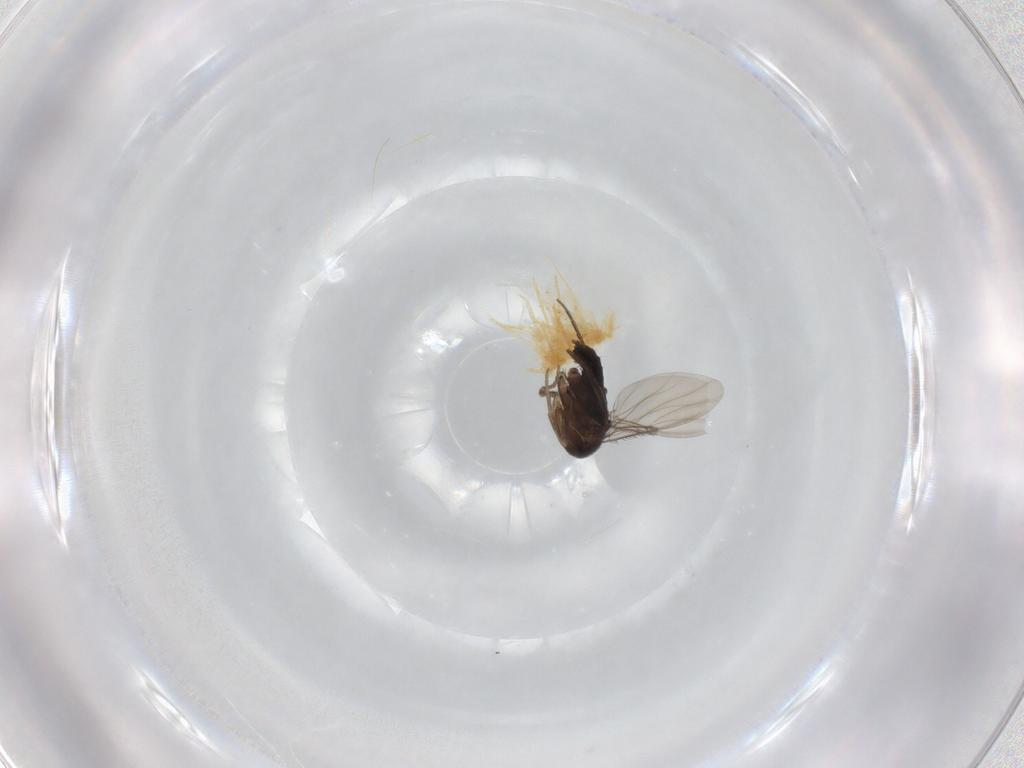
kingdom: Animalia
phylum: Arthropoda
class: Insecta
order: Diptera
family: Phoridae
